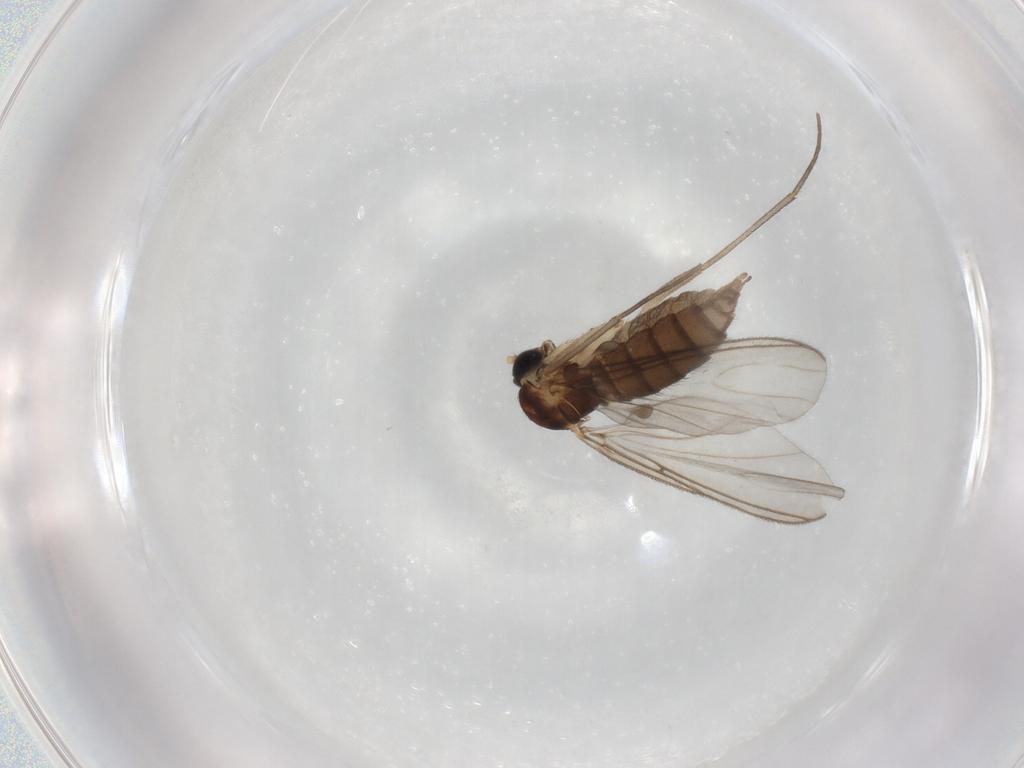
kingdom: Animalia
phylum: Arthropoda
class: Insecta
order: Diptera
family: Sciaridae
